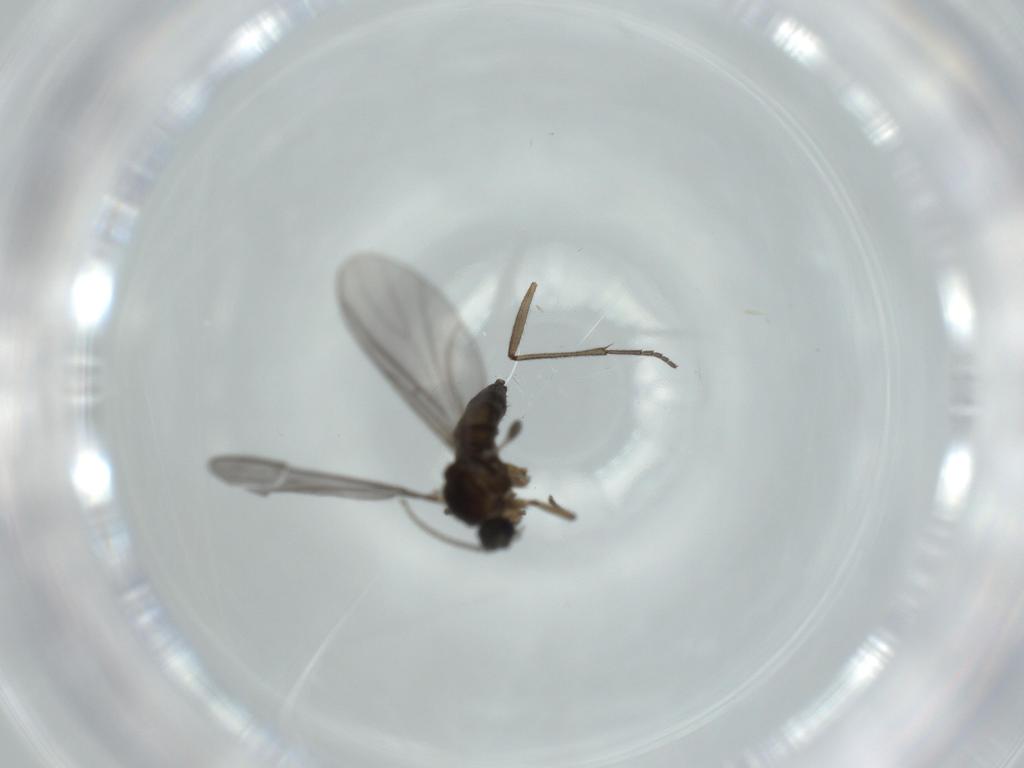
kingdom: Animalia
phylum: Arthropoda
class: Insecta
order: Diptera
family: Sciaridae
